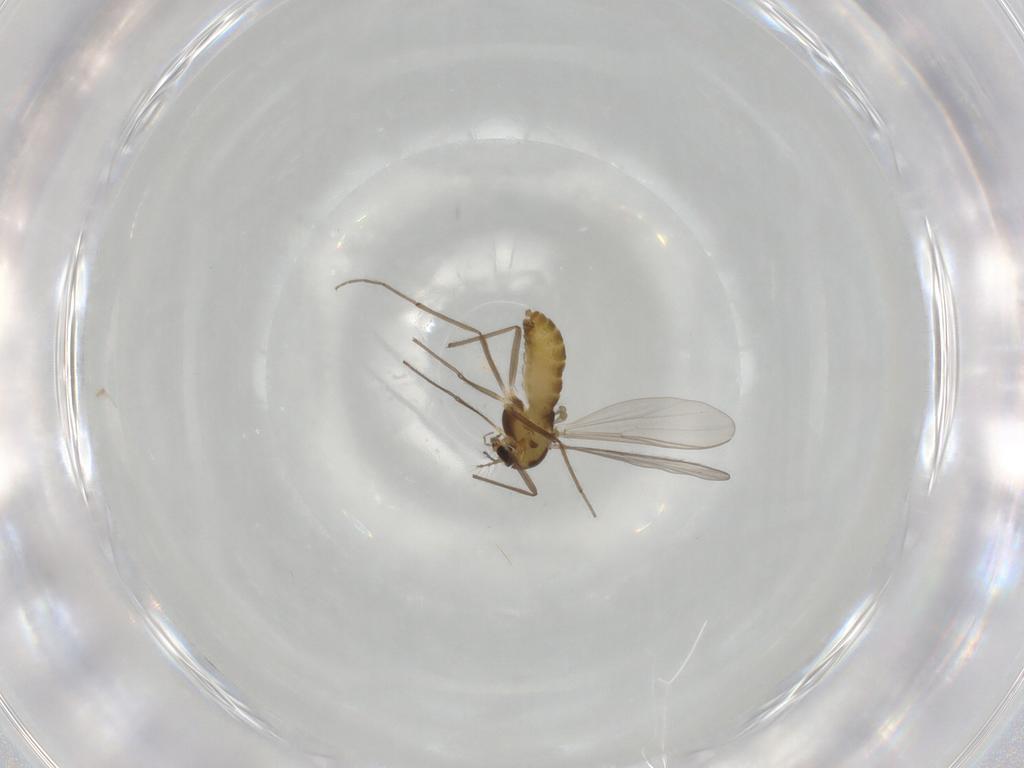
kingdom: Animalia
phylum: Arthropoda
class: Insecta
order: Diptera
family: Chironomidae
